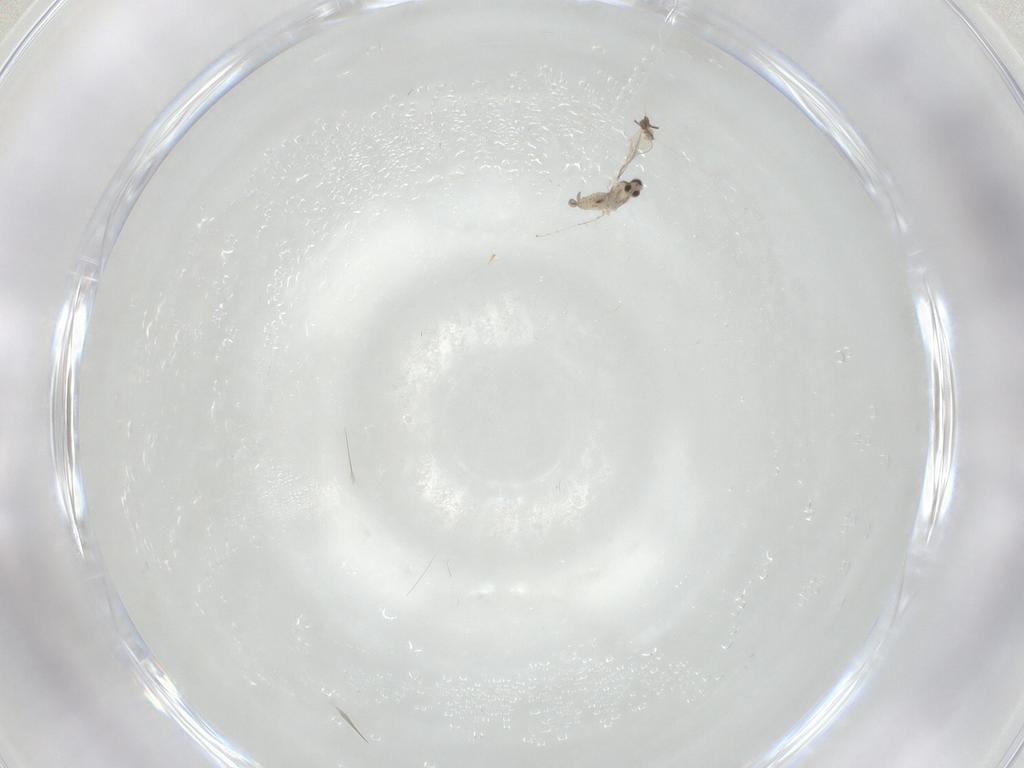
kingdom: Animalia
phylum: Arthropoda
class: Insecta
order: Diptera
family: Cecidomyiidae
